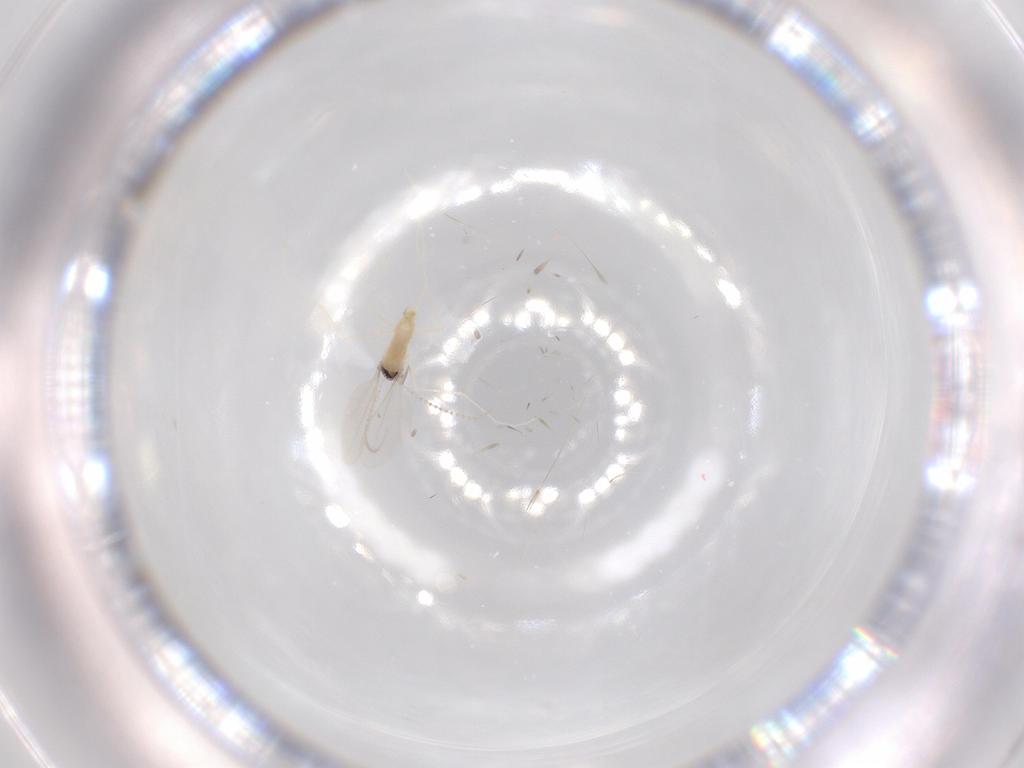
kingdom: Animalia
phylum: Arthropoda
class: Insecta
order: Diptera
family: Cecidomyiidae
